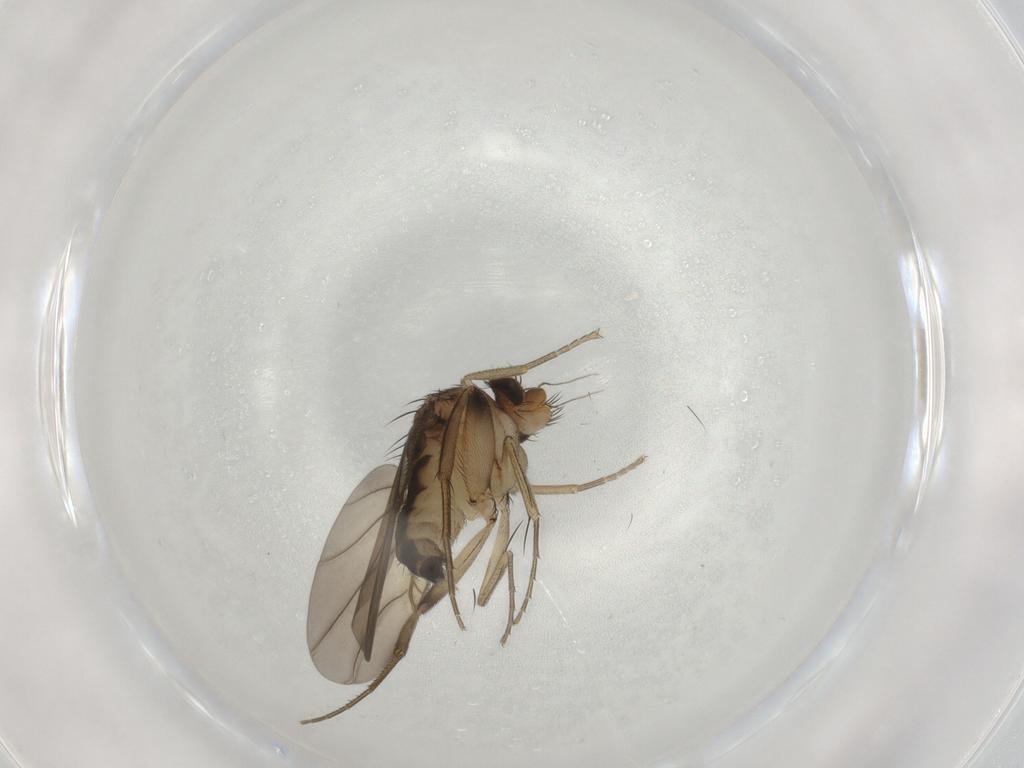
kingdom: Animalia
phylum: Arthropoda
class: Insecta
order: Diptera
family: Phoridae
